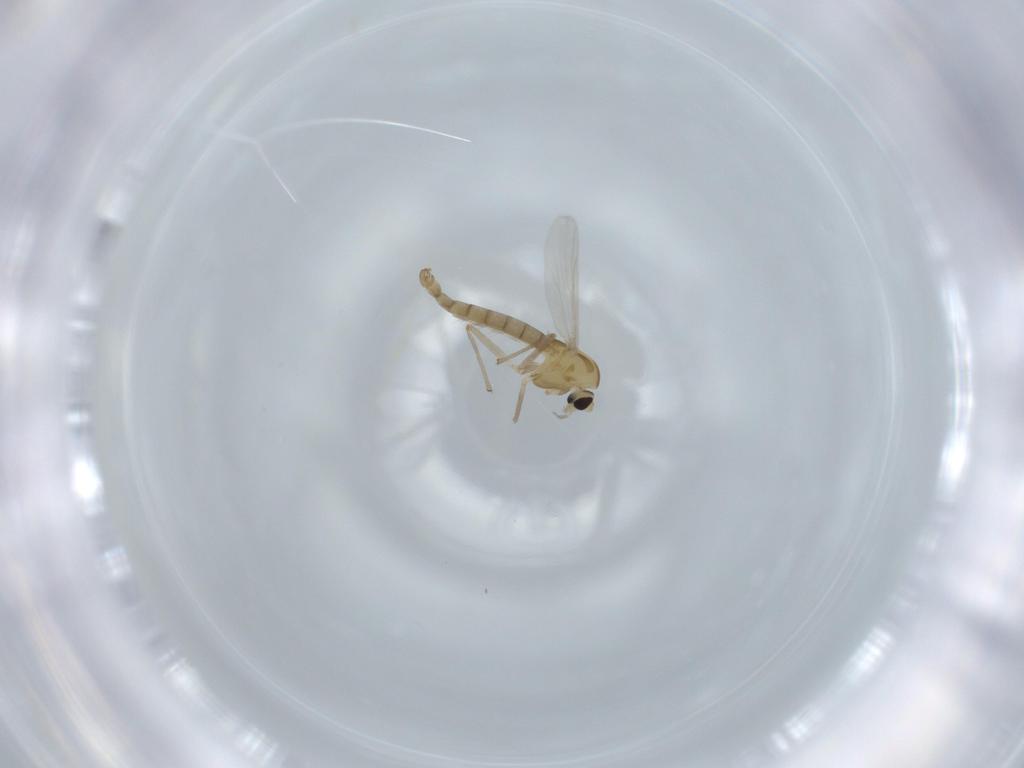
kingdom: Animalia
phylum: Arthropoda
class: Insecta
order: Diptera
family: Chironomidae
